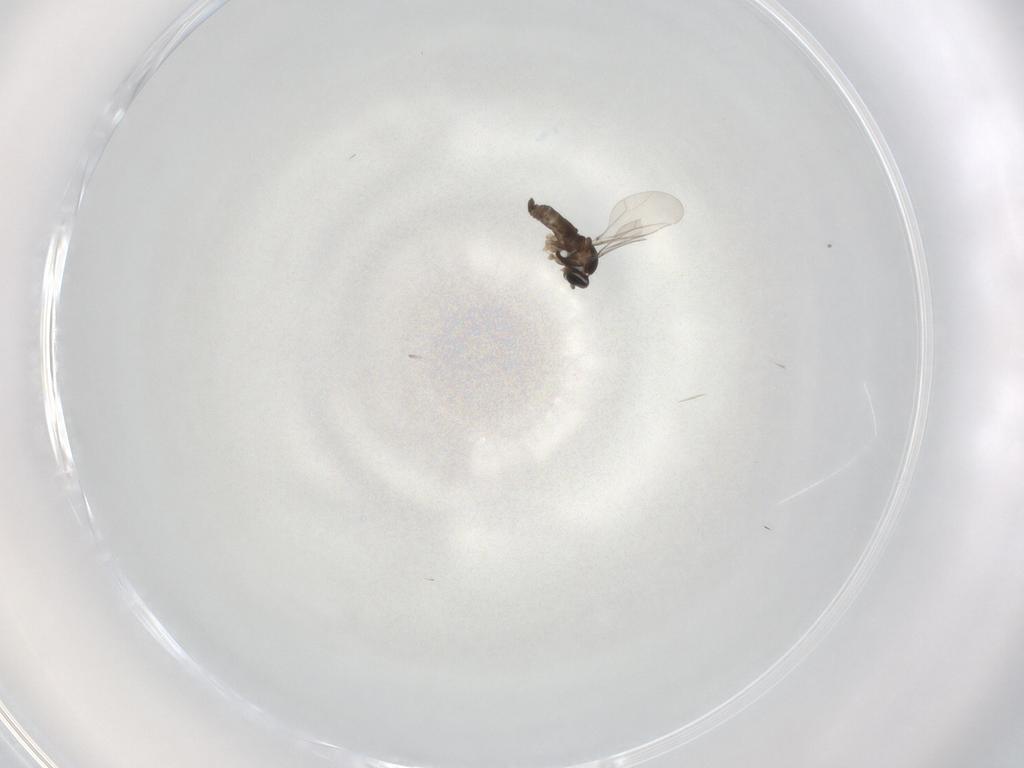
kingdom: Animalia
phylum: Arthropoda
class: Insecta
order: Diptera
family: Cecidomyiidae
